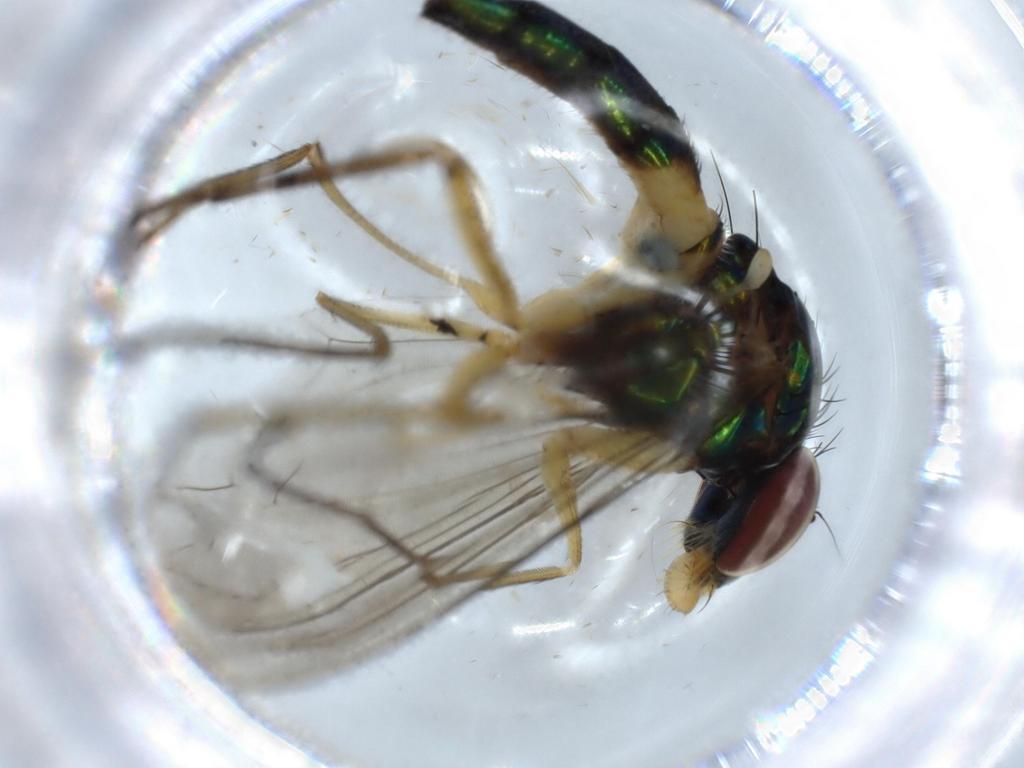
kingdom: Animalia
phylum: Arthropoda
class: Insecta
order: Diptera
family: Dolichopodidae
